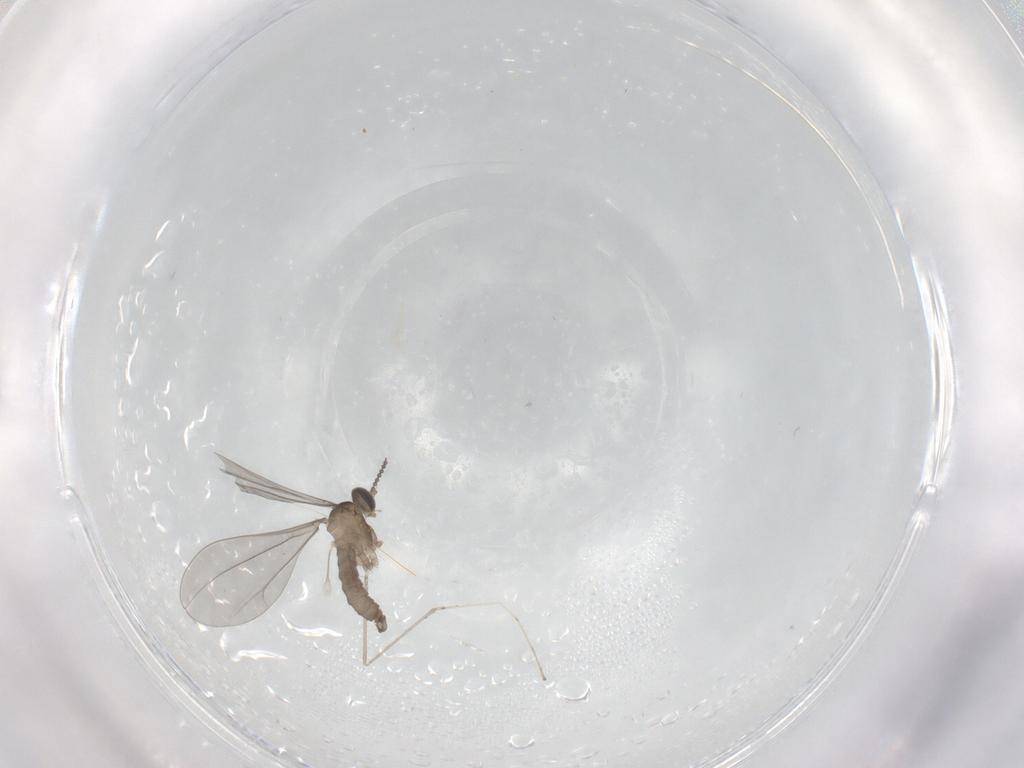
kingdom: Animalia
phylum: Arthropoda
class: Insecta
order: Diptera
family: Cecidomyiidae
